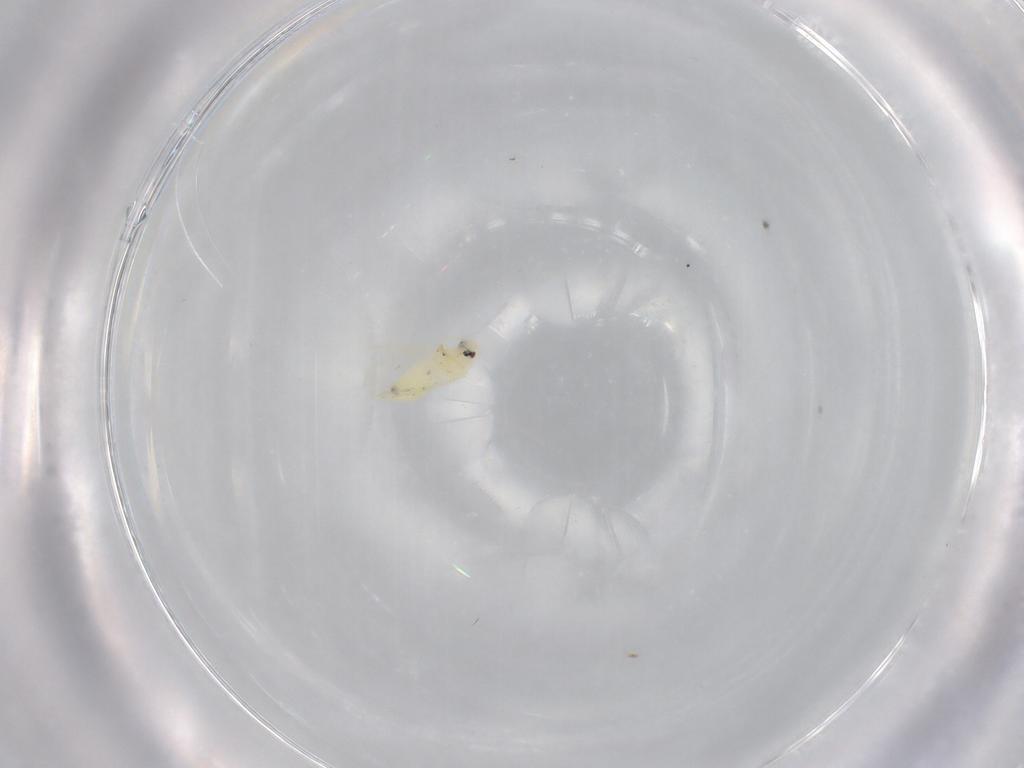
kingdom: Animalia
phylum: Arthropoda
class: Insecta
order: Hemiptera
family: Aleyrodidae
